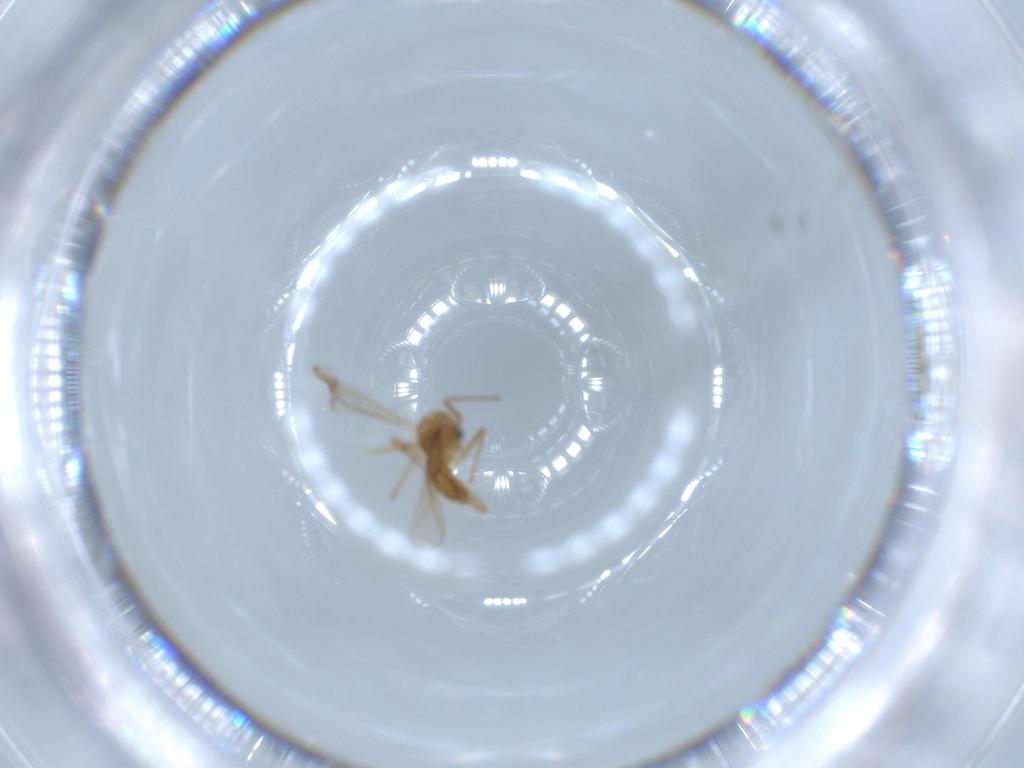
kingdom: Animalia
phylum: Arthropoda
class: Insecta
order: Diptera
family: Chironomidae
